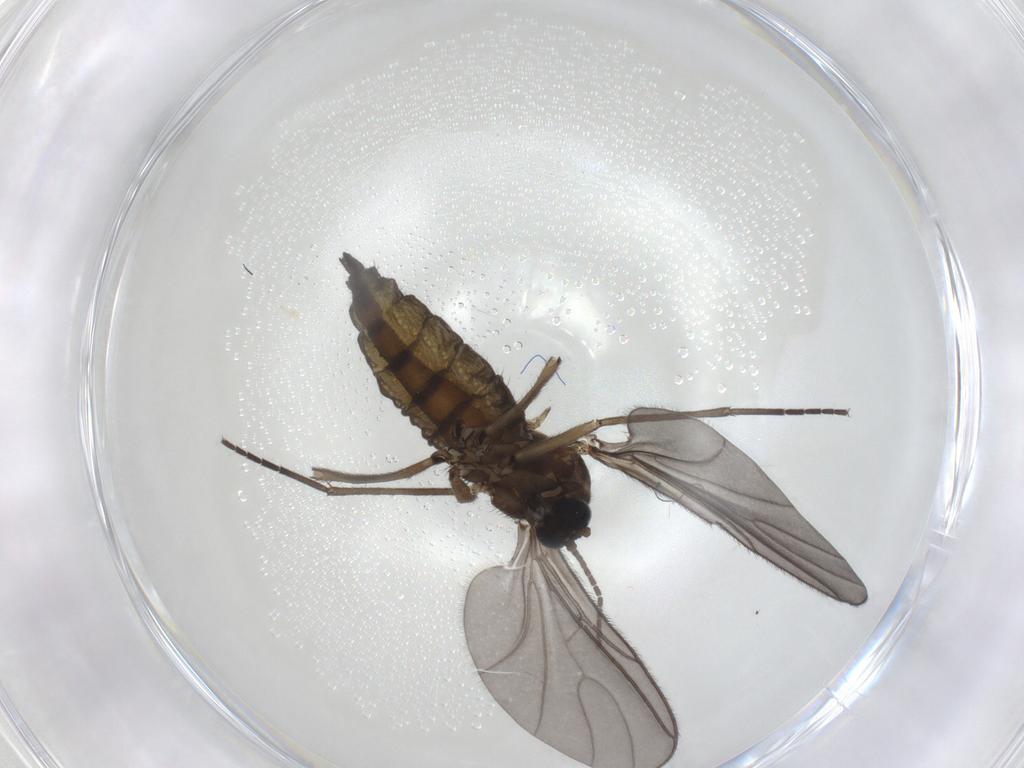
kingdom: Animalia
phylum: Arthropoda
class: Insecta
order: Diptera
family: Sciaridae
